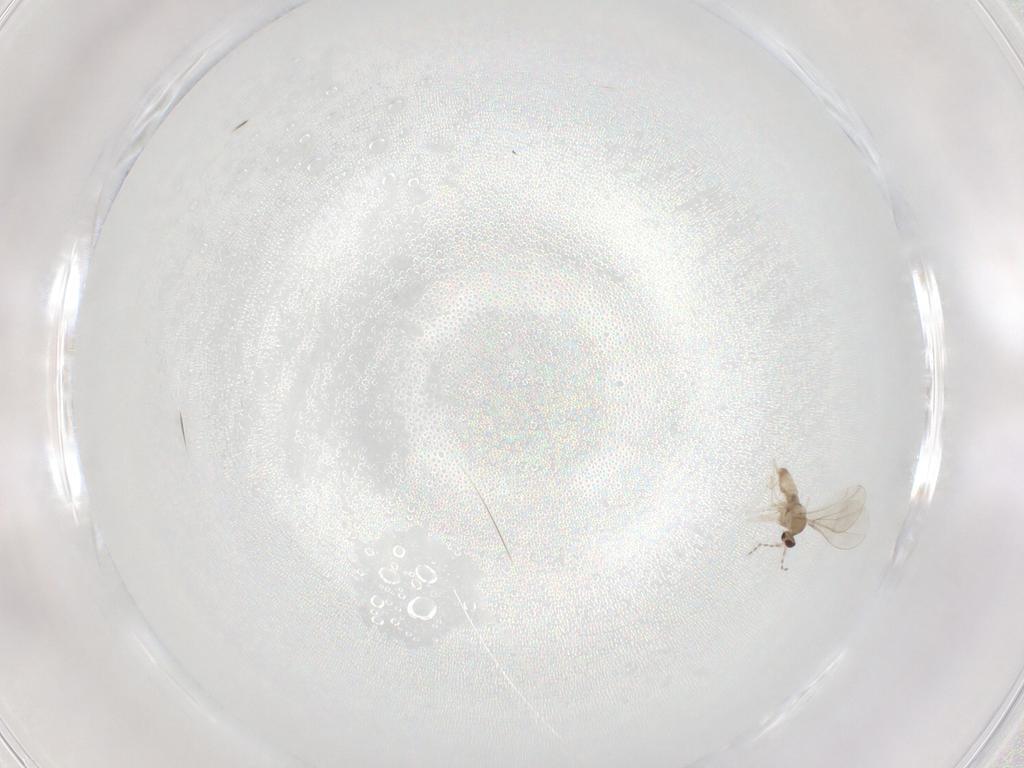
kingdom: Animalia
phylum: Arthropoda
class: Insecta
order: Diptera
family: Cecidomyiidae
